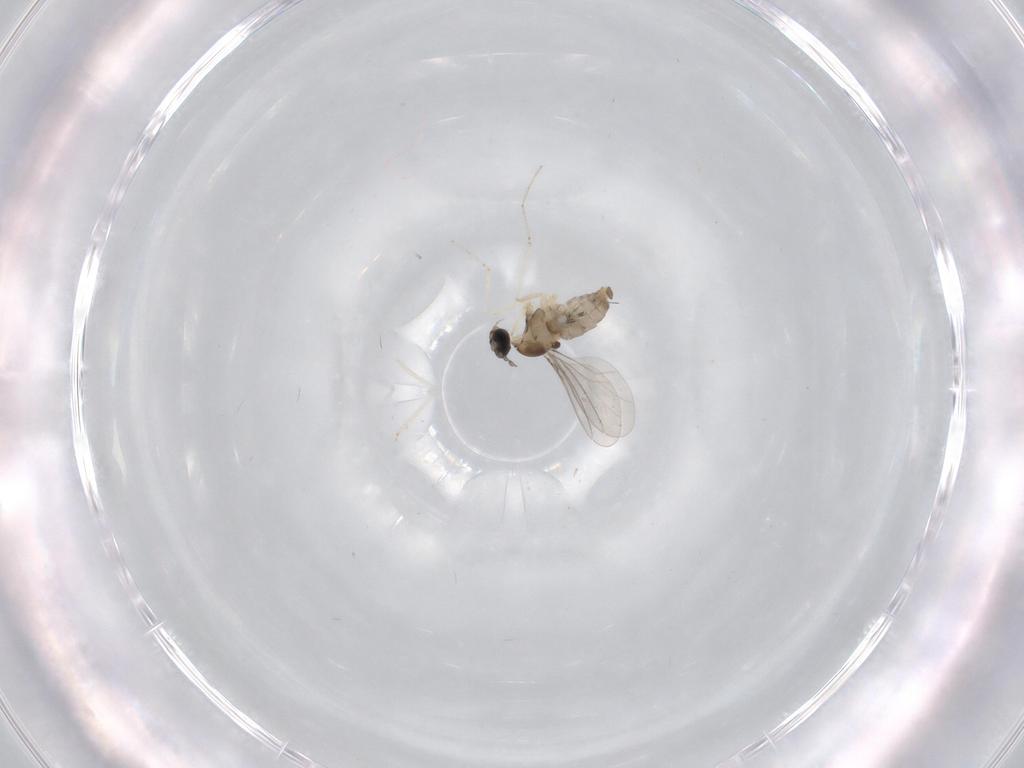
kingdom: Animalia
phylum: Arthropoda
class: Insecta
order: Diptera
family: Cecidomyiidae
